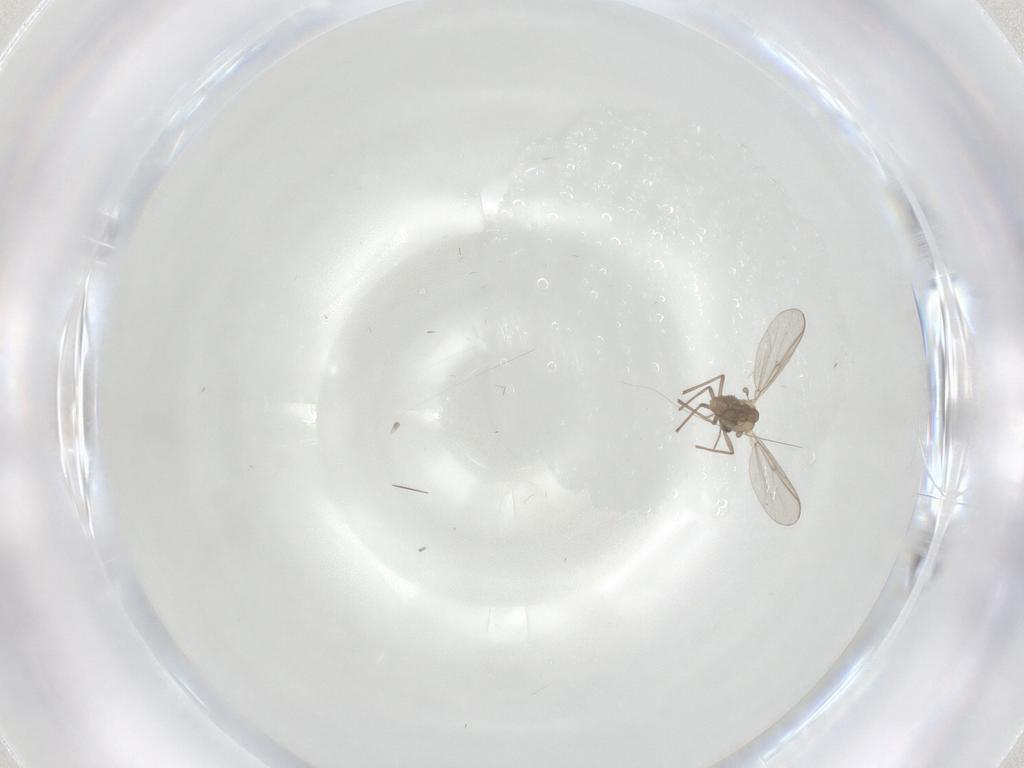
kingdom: Animalia
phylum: Arthropoda
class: Insecta
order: Diptera
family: Chironomidae
